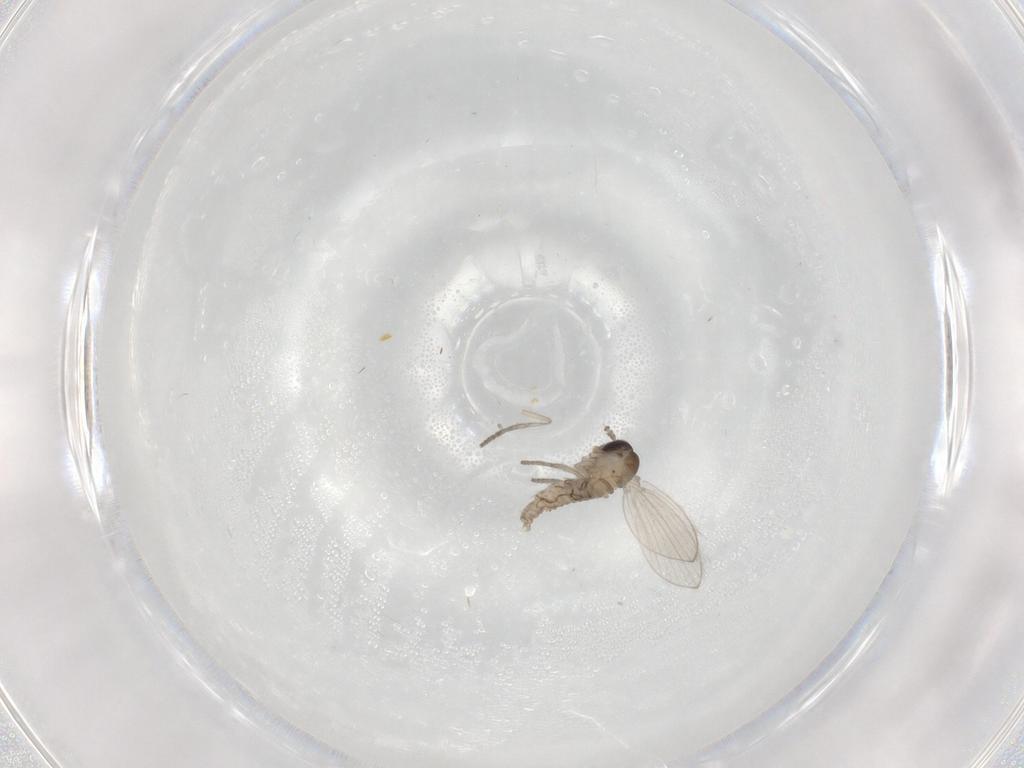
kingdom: Animalia
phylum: Arthropoda
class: Insecta
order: Diptera
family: Psychodidae
